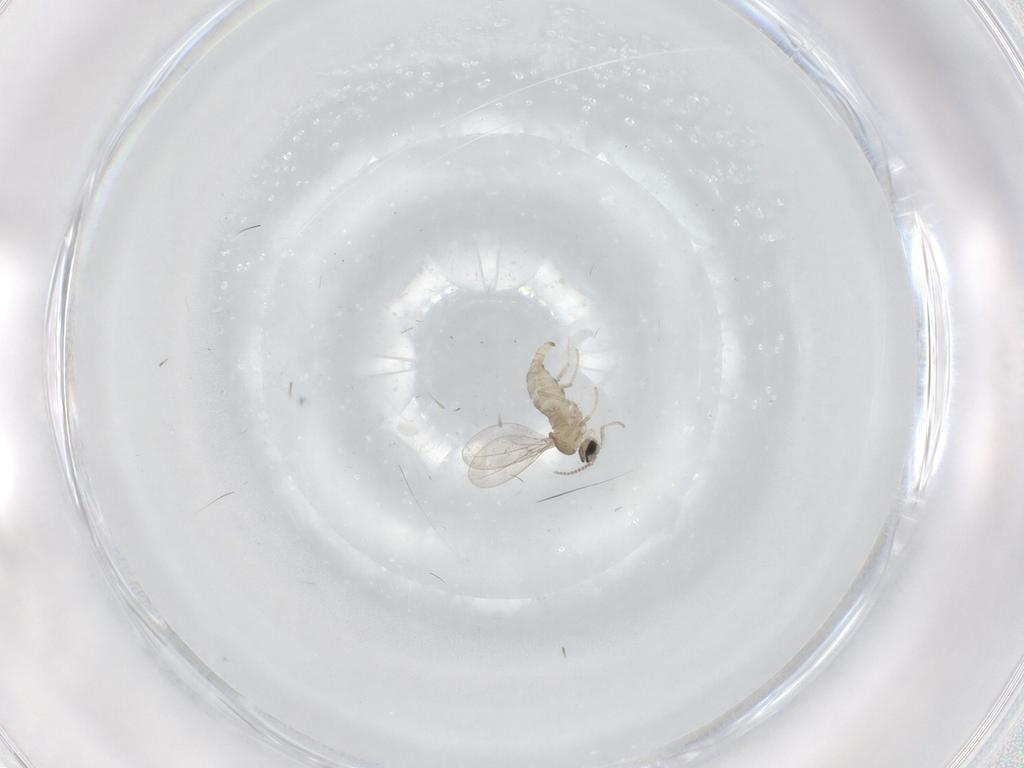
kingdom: Animalia
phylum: Arthropoda
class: Insecta
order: Diptera
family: Cecidomyiidae
